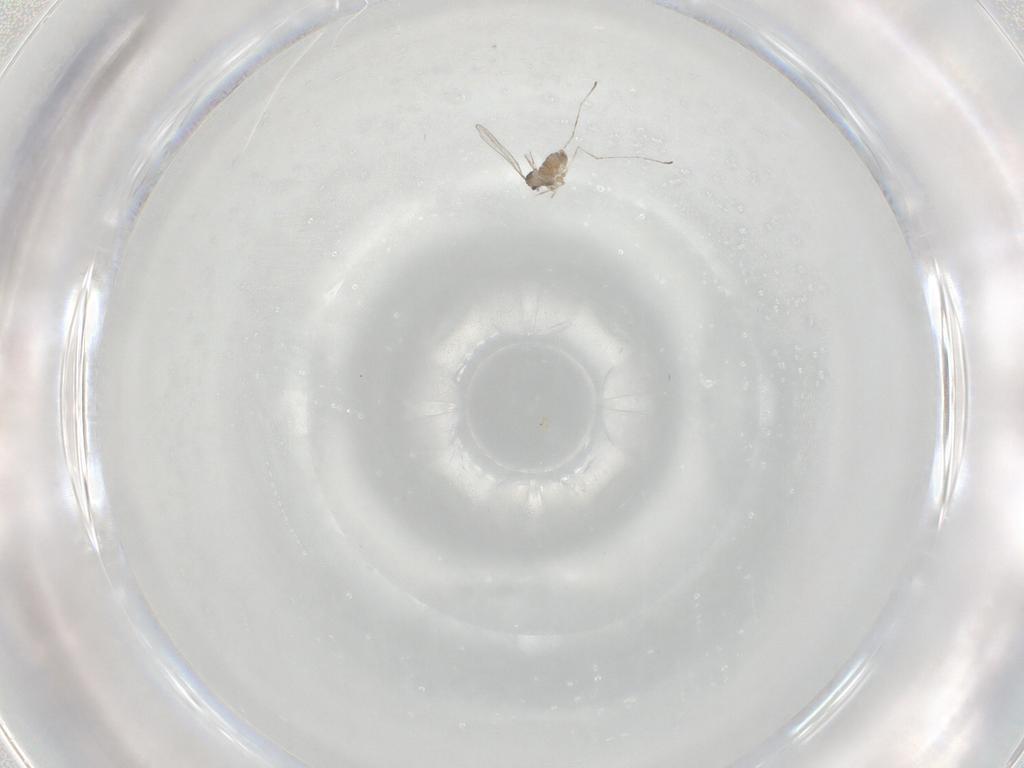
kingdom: Animalia
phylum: Arthropoda
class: Insecta
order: Diptera
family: Cecidomyiidae
